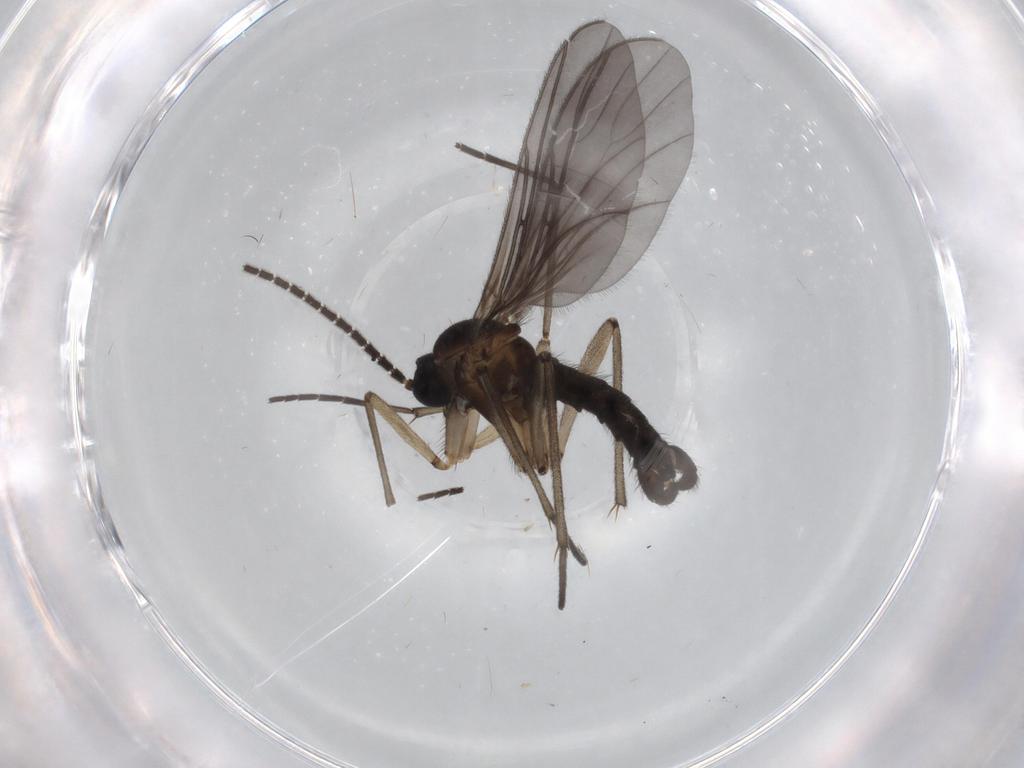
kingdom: Animalia
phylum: Arthropoda
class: Insecta
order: Diptera
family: Sciaridae
